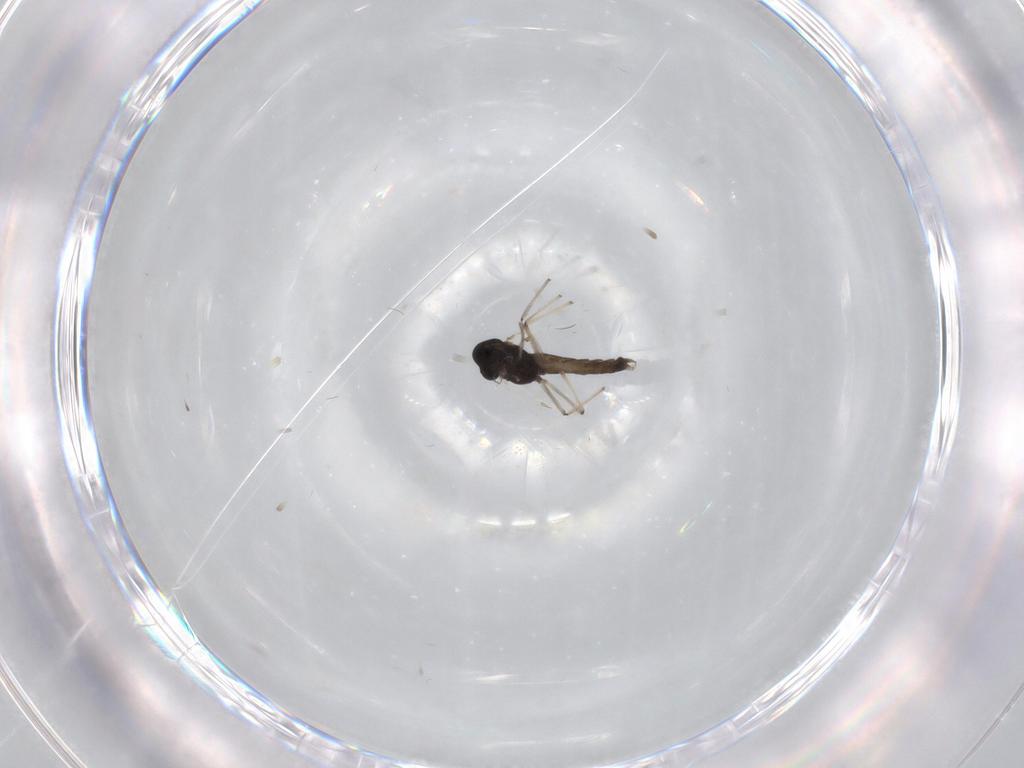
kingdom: Animalia
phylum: Arthropoda
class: Insecta
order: Diptera
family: Chironomidae
